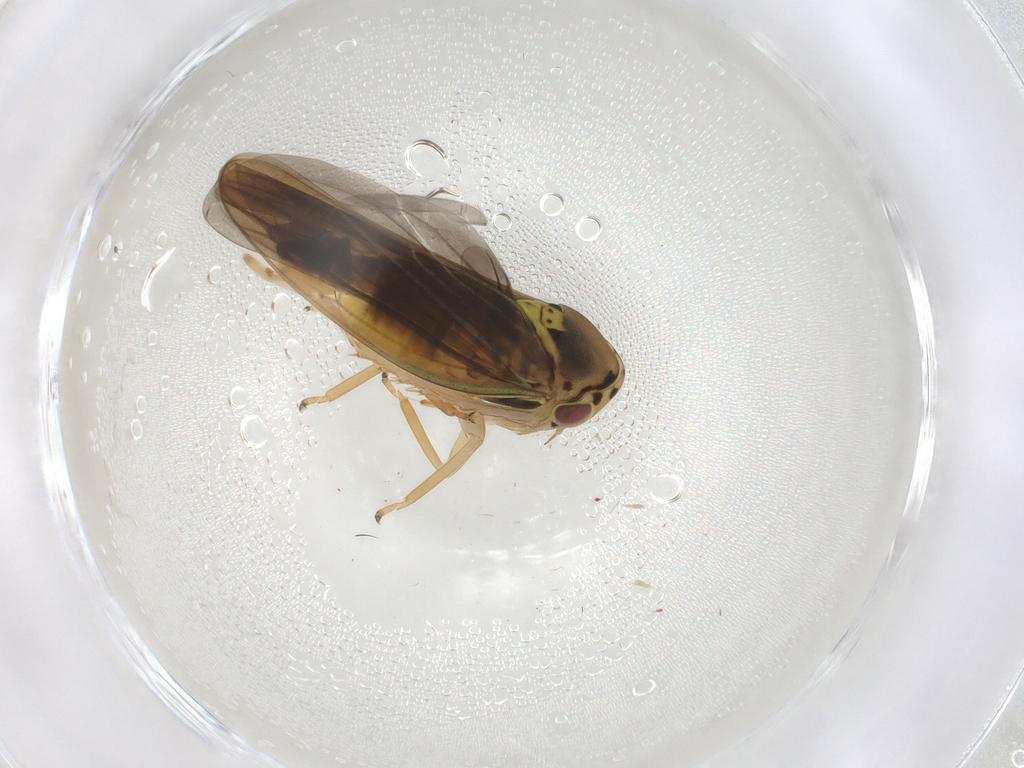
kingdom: Animalia
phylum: Arthropoda
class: Insecta
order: Hemiptera
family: Cicadellidae
